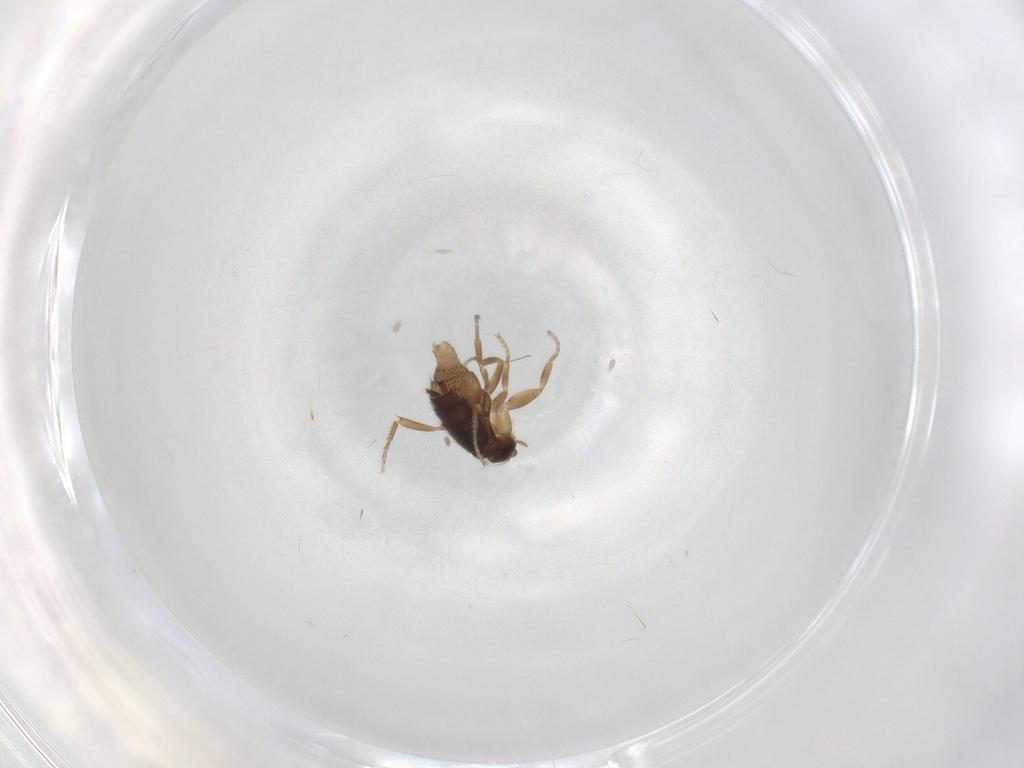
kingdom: Animalia
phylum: Arthropoda
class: Insecta
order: Diptera
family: Phoridae
